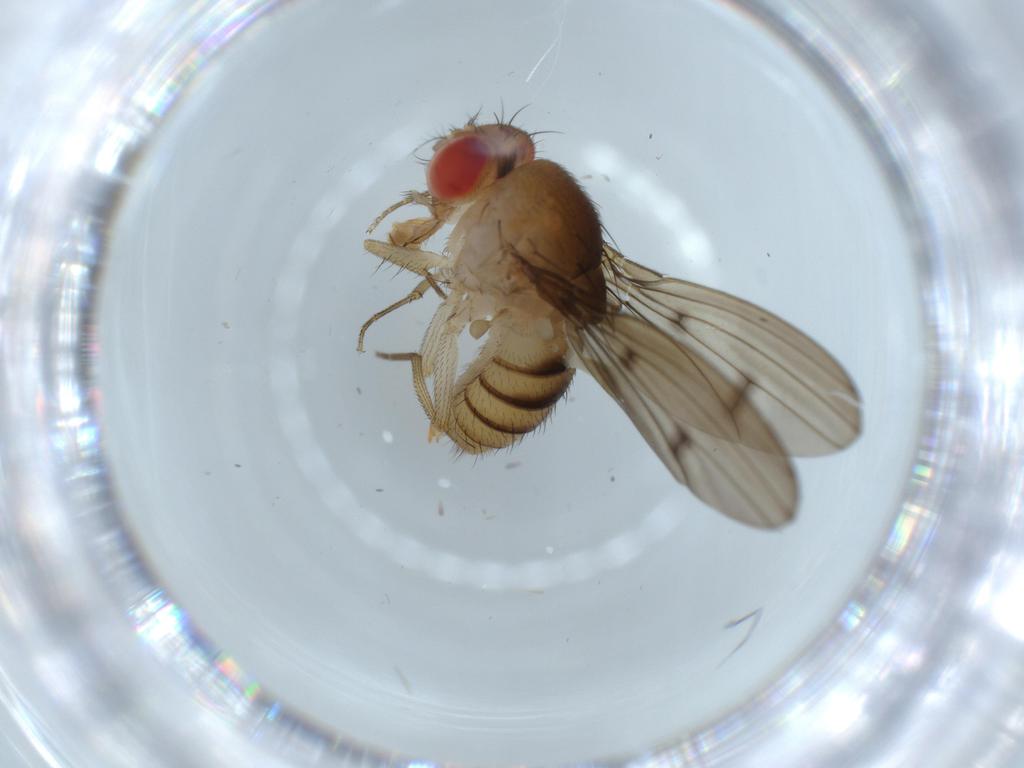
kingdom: Animalia
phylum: Arthropoda
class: Insecta
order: Diptera
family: Drosophilidae
